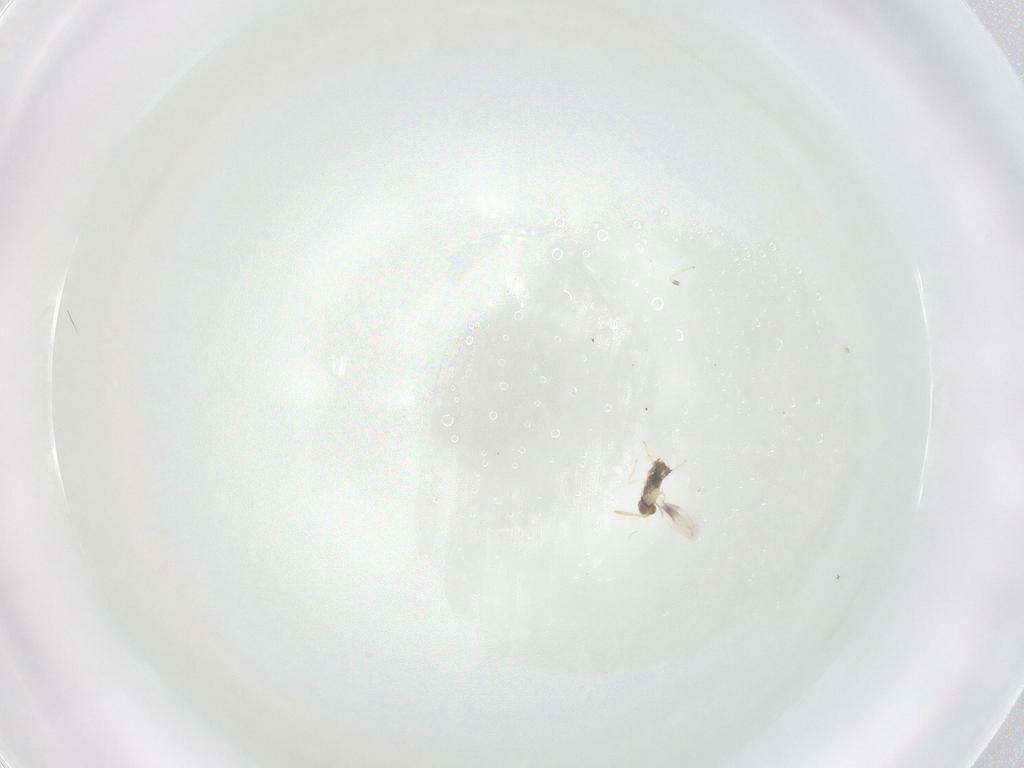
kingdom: Animalia
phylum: Arthropoda
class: Insecta
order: Hymenoptera
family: Aphelinidae
